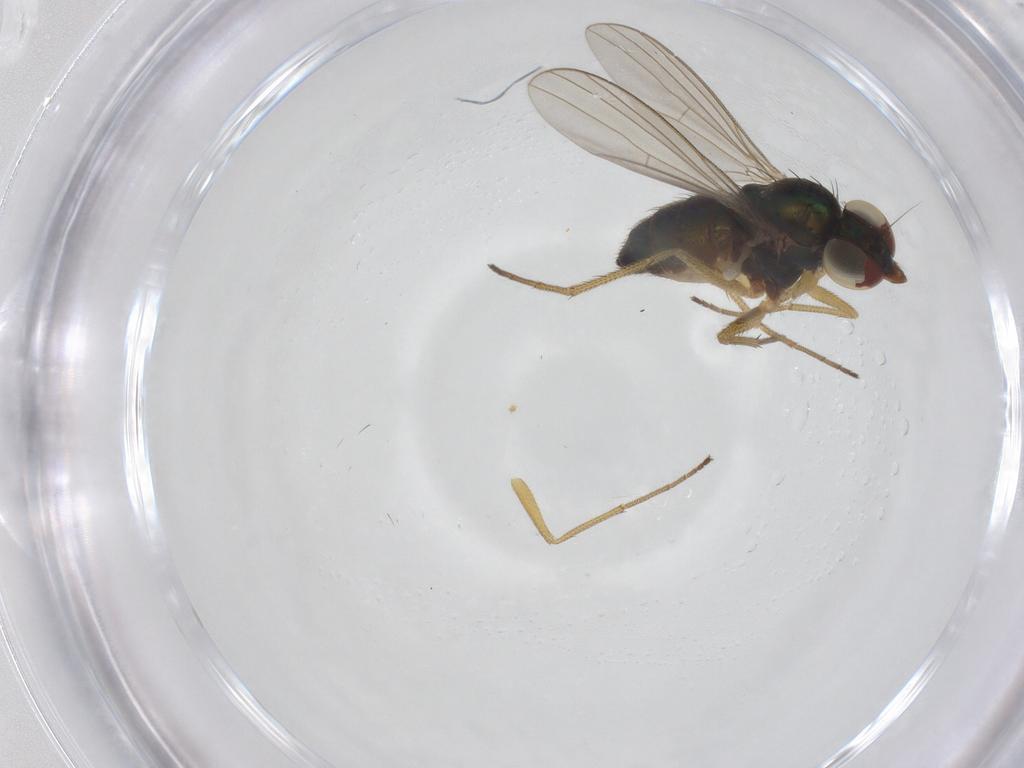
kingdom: Animalia
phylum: Arthropoda
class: Insecta
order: Diptera
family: Dolichopodidae
